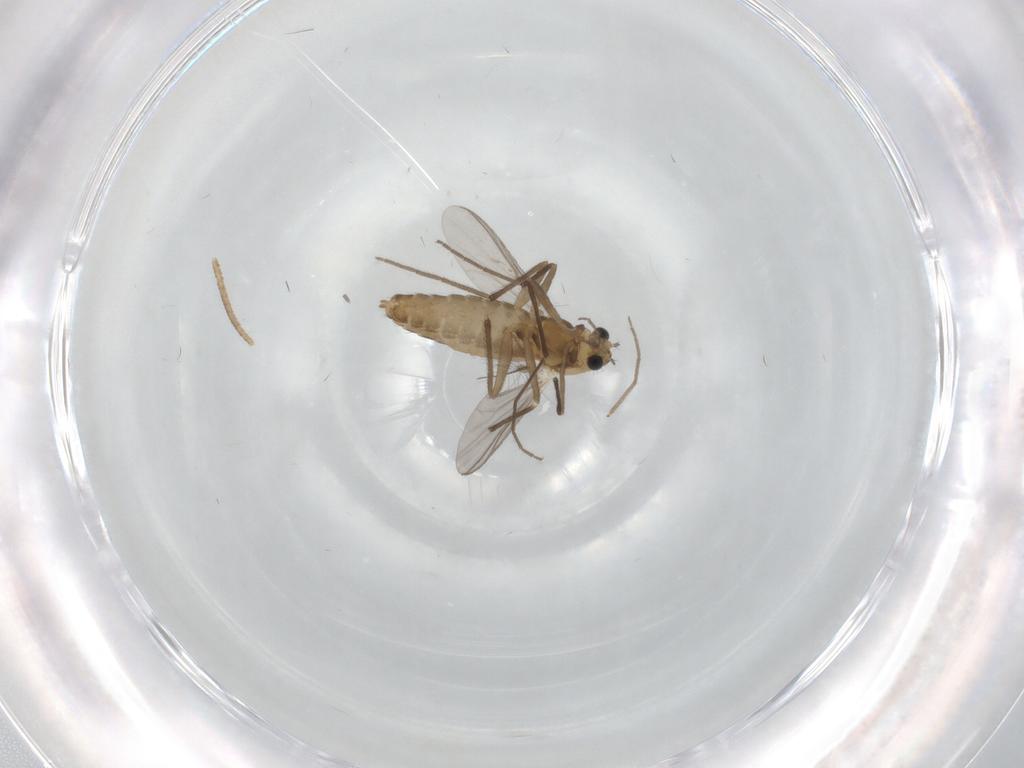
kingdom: Animalia
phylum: Arthropoda
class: Insecta
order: Diptera
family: Chironomidae
